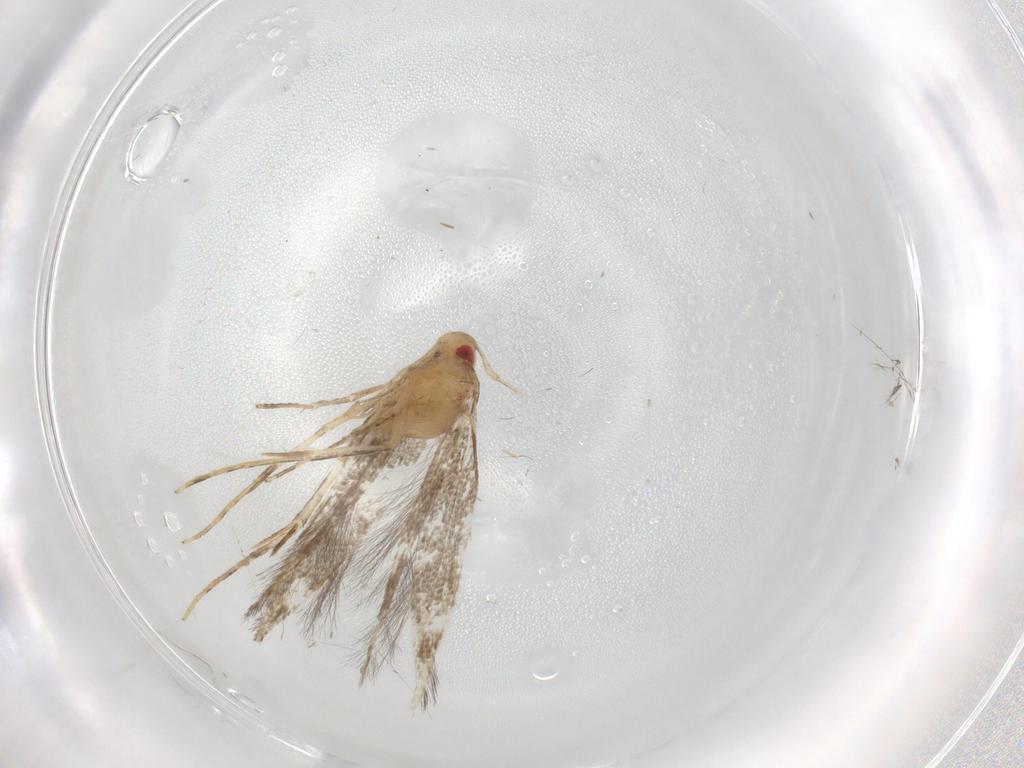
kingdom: Animalia
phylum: Arthropoda
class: Insecta
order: Lepidoptera
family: Cosmopterigidae
